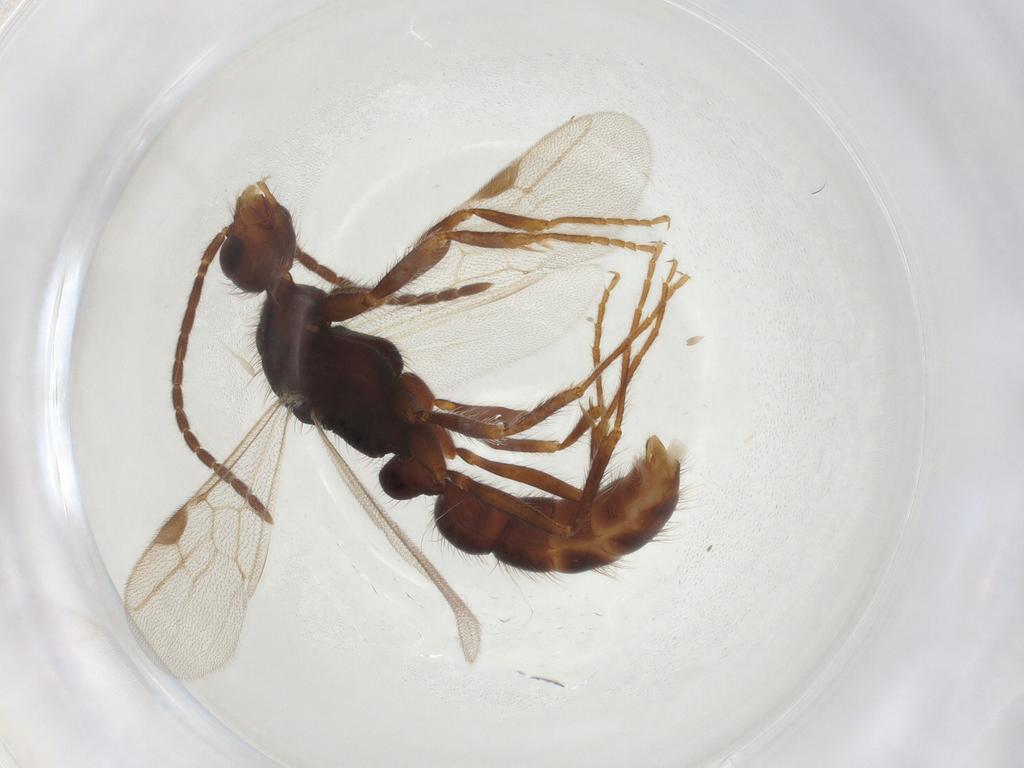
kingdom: Animalia
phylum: Arthropoda
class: Insecta
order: Hymenoptera
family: Formicidae
